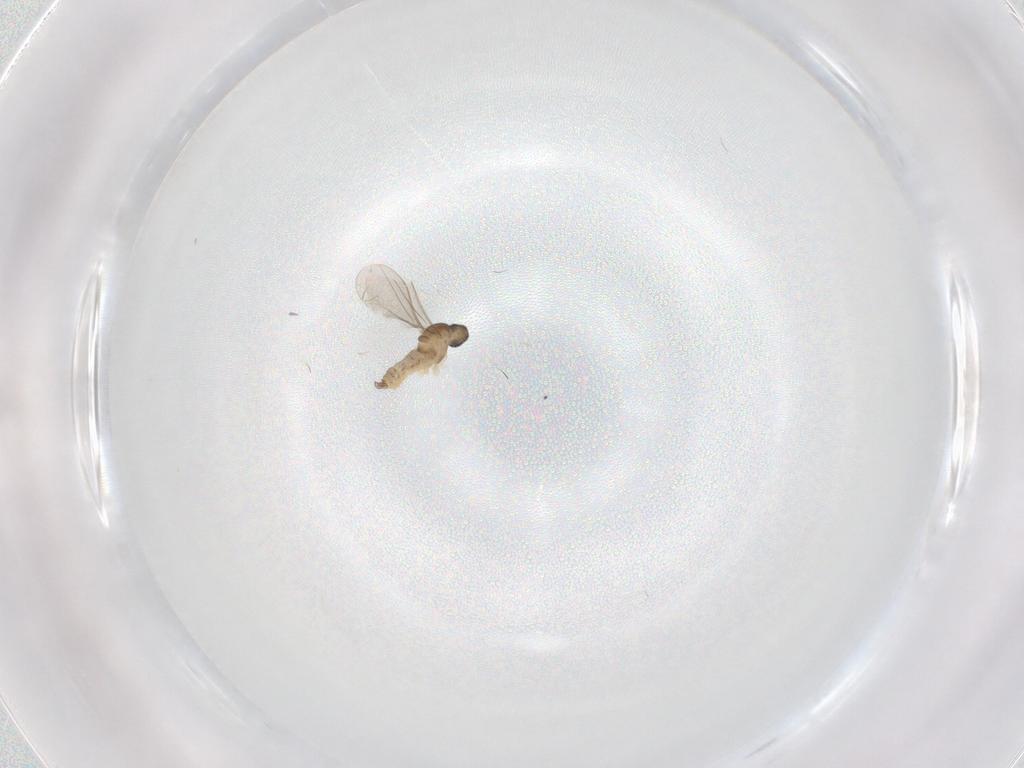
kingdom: Animalia
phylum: Arthropoda
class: Insecta
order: Diptera
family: Cecidomyiidae
